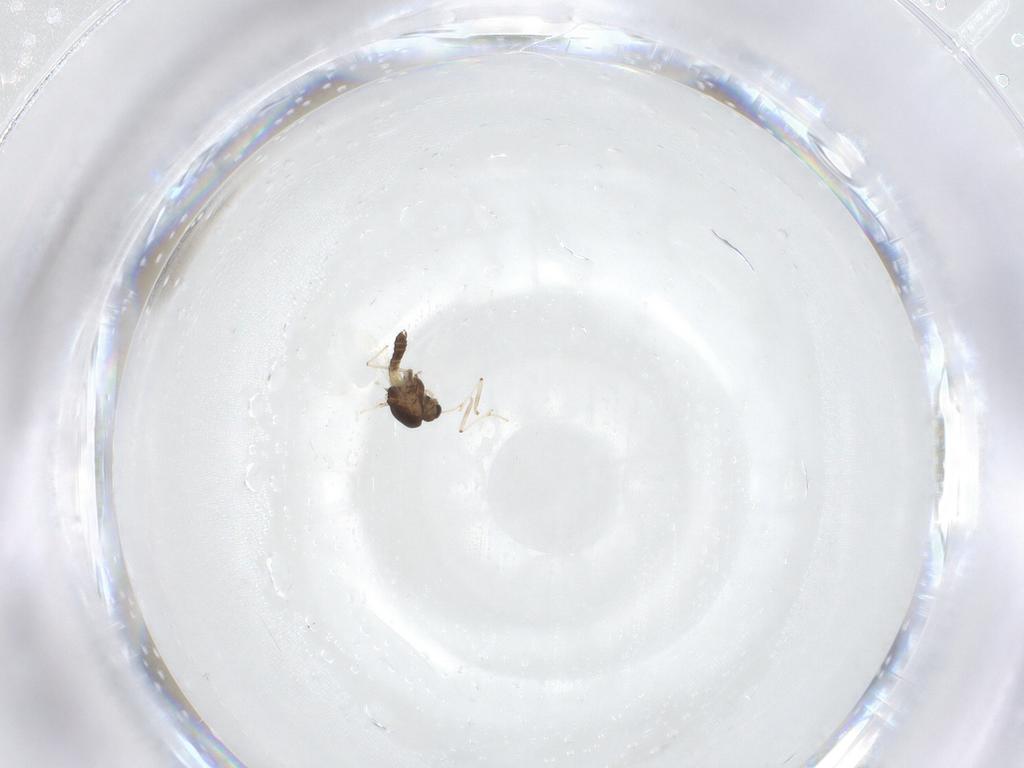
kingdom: Animalia
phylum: Arthropoda
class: Insecta
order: Diptera
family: Chironomidae
